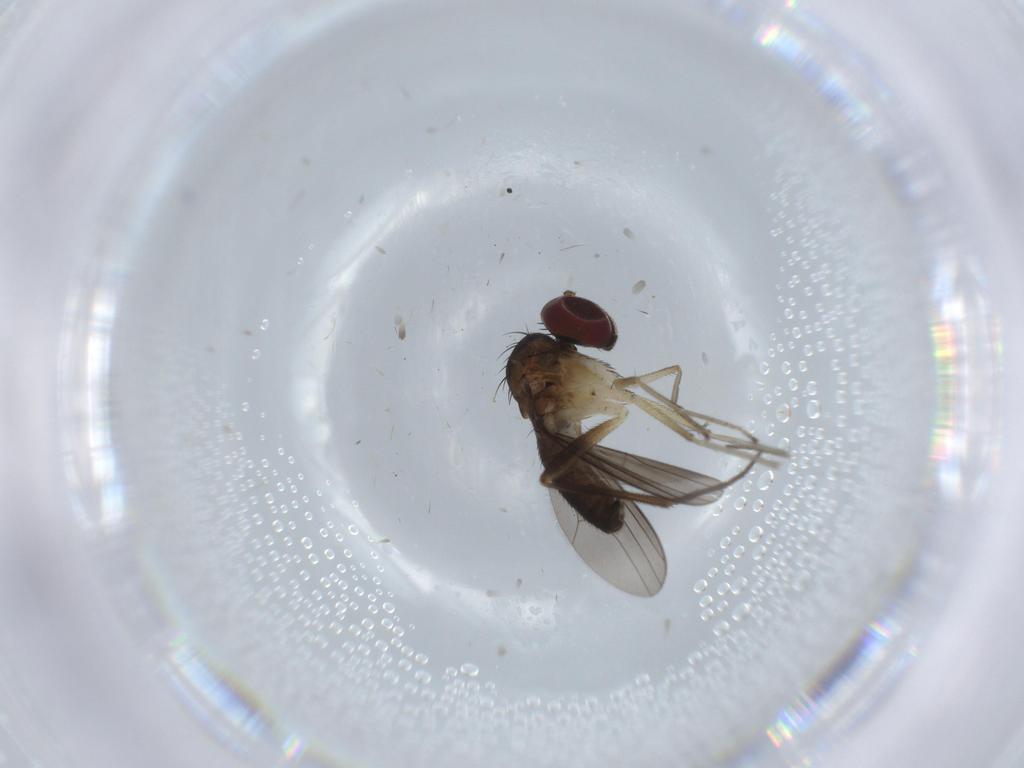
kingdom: Animalia
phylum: Arthropoda
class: Insecta
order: Diptera
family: Dolichopodidae
